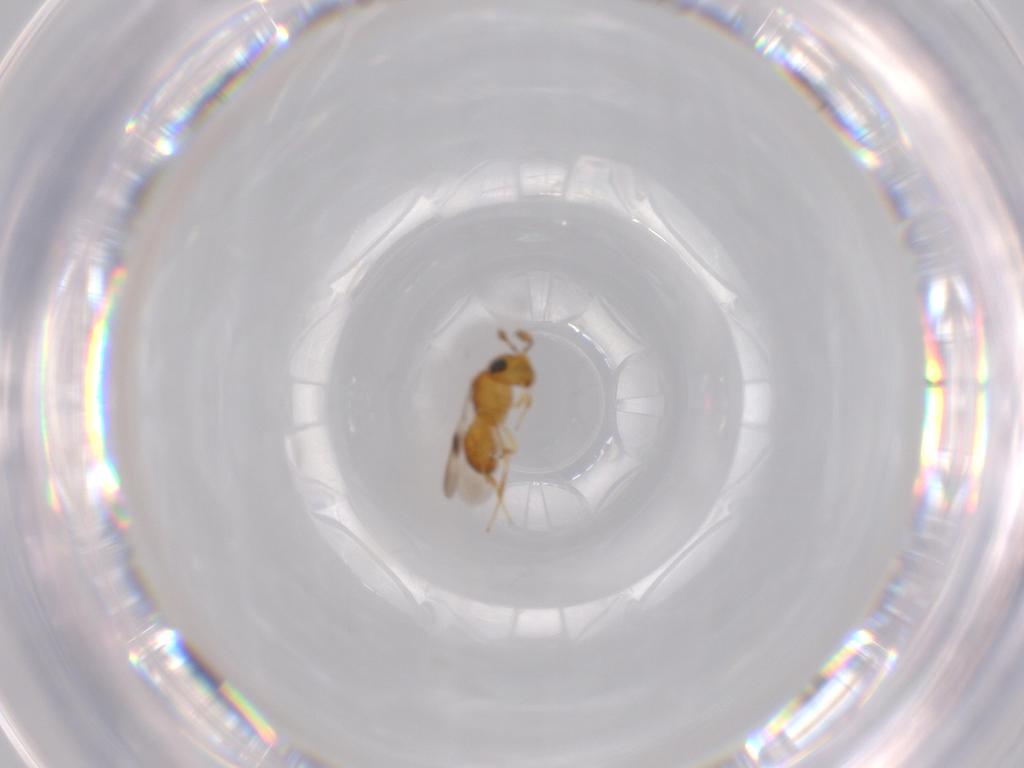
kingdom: Animalia
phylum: Arthropoda
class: Insecta
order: Hymenoptera
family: Scelionidae
